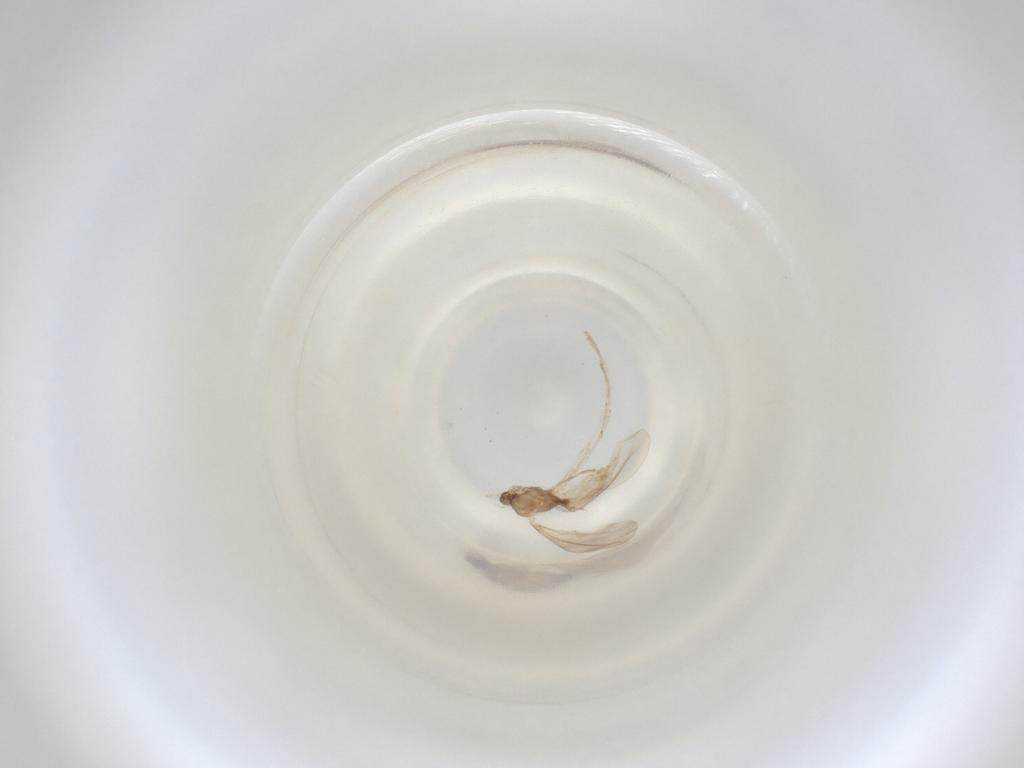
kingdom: Animalia
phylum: Arthropoda
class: Insecta
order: Diptera
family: Cecidomyiidae
